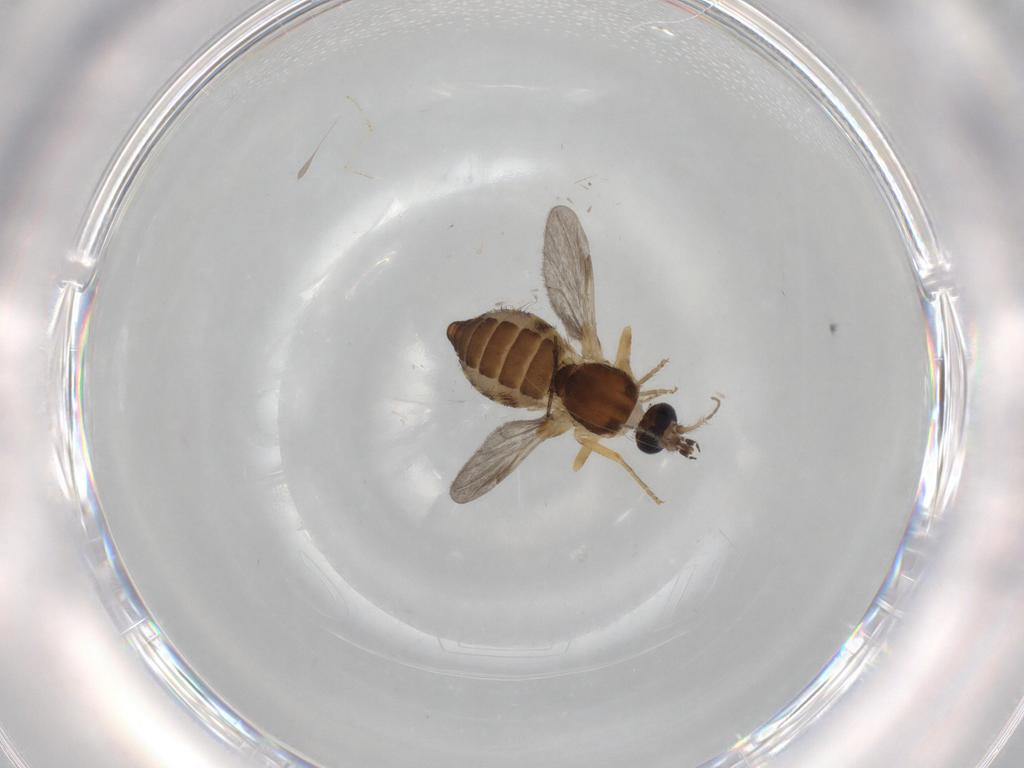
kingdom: Animalia
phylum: Arthropoda
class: Insecta
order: Diptera
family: Ceratopogonidae
